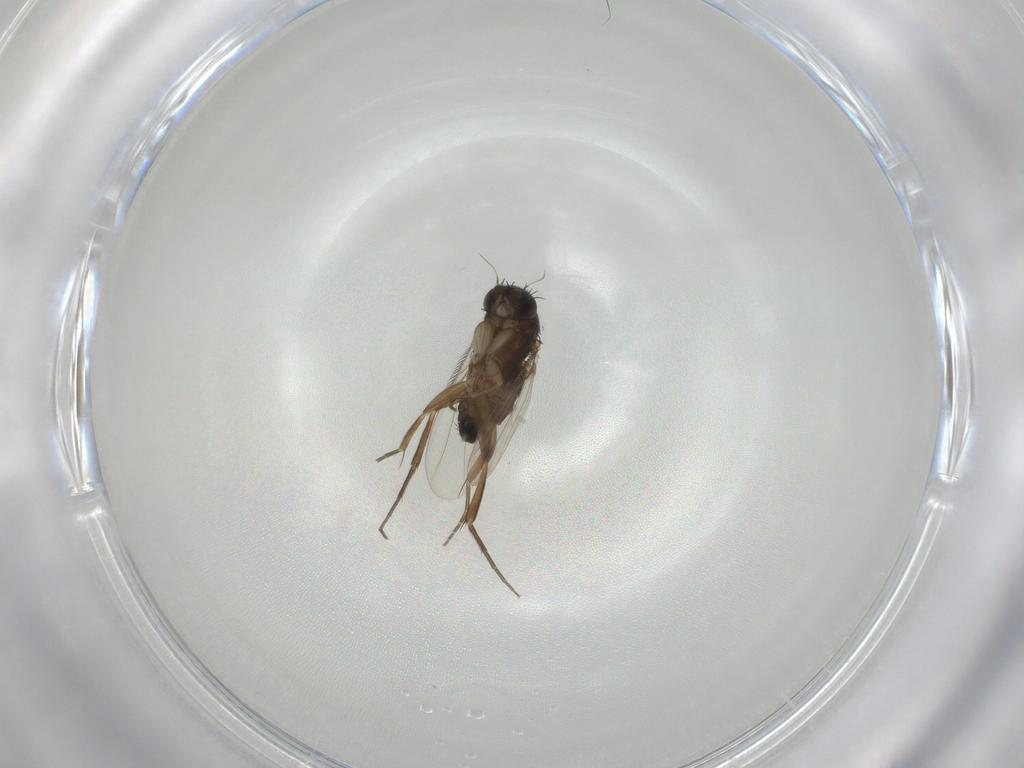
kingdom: Animalia
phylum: Arthropoda
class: Insecta
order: Diptera
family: Phoridae
